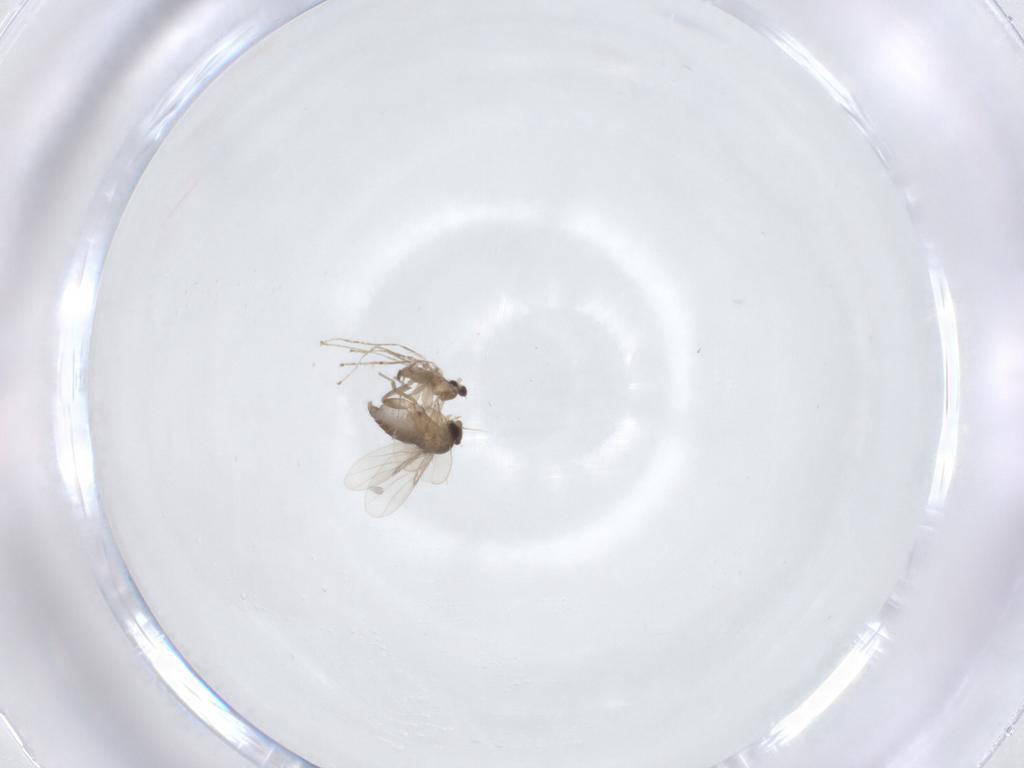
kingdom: Animalia
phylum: Arthropoda
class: Insecta
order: Diptera
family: Phoridae
